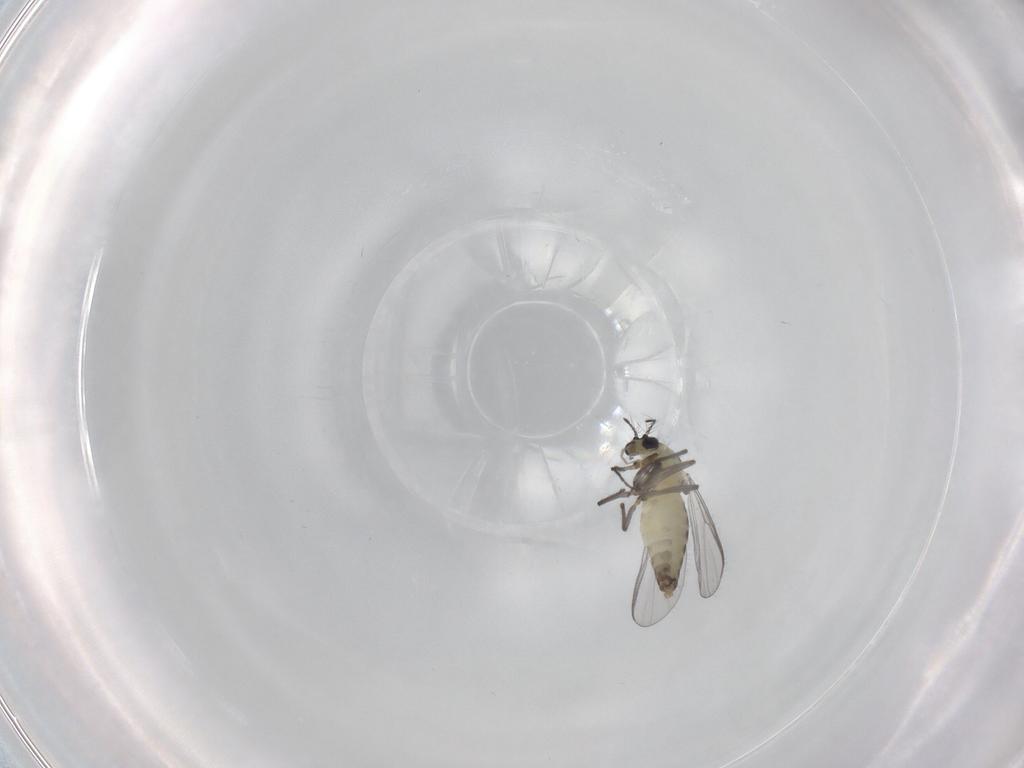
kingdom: Animalia
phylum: Arthropoda
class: Insecta
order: Diptera
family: Chironomidae
